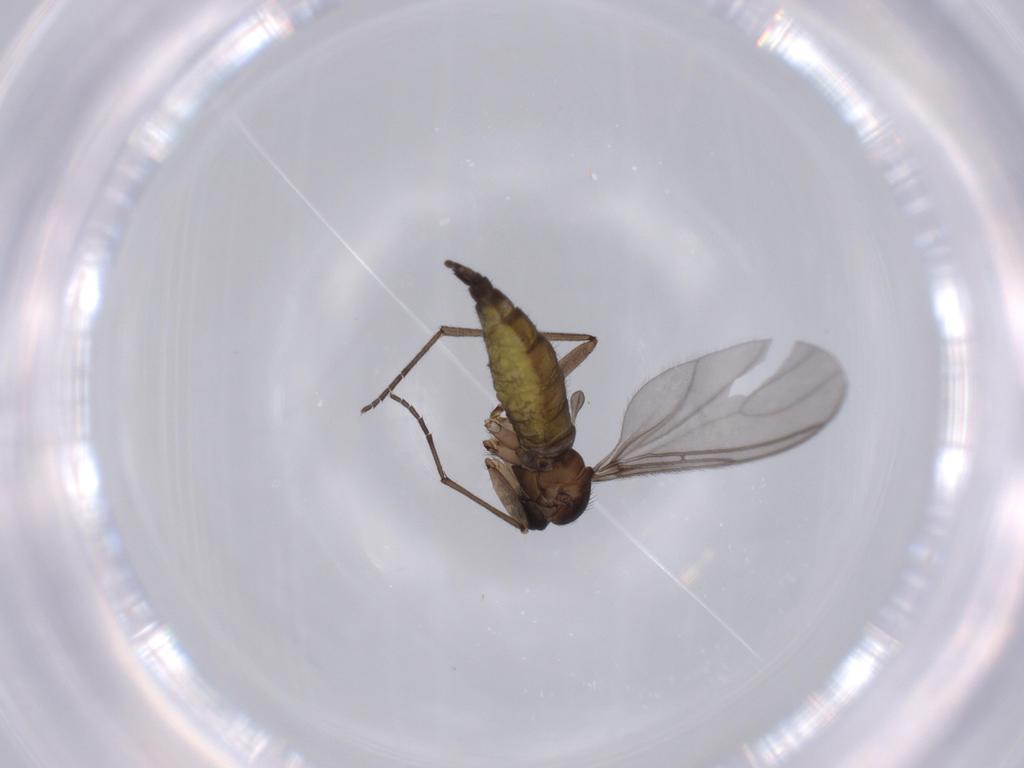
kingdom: Animalia
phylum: Arthropoda
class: Insecta
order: Diptera
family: Sciaridae
